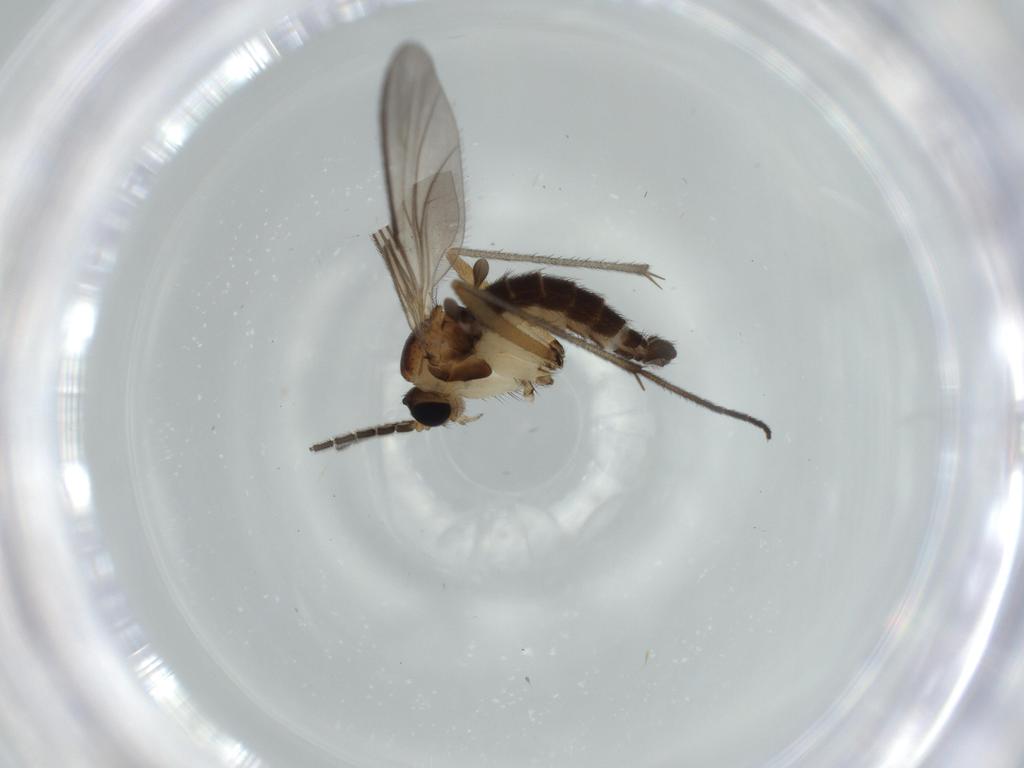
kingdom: Animalia
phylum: Arthropoda
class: Insecta
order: Diptera
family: Sciaridae
